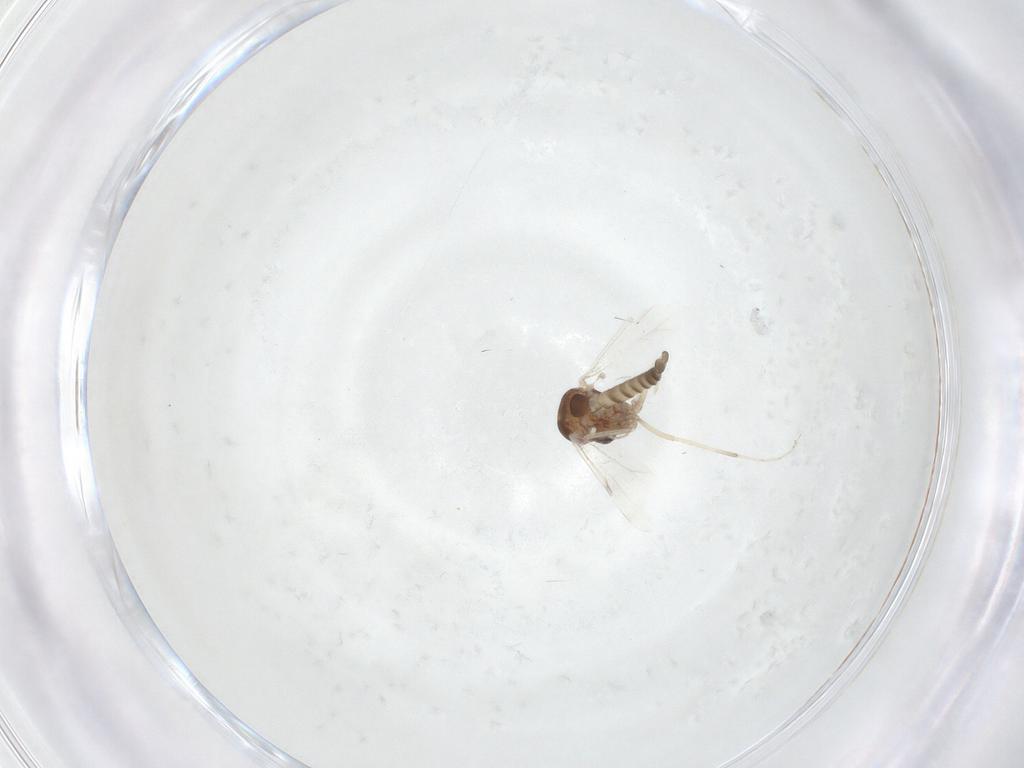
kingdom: Animalia
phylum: Arthropoda
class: Insecta
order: Diptera
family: Ceratopogonidae
